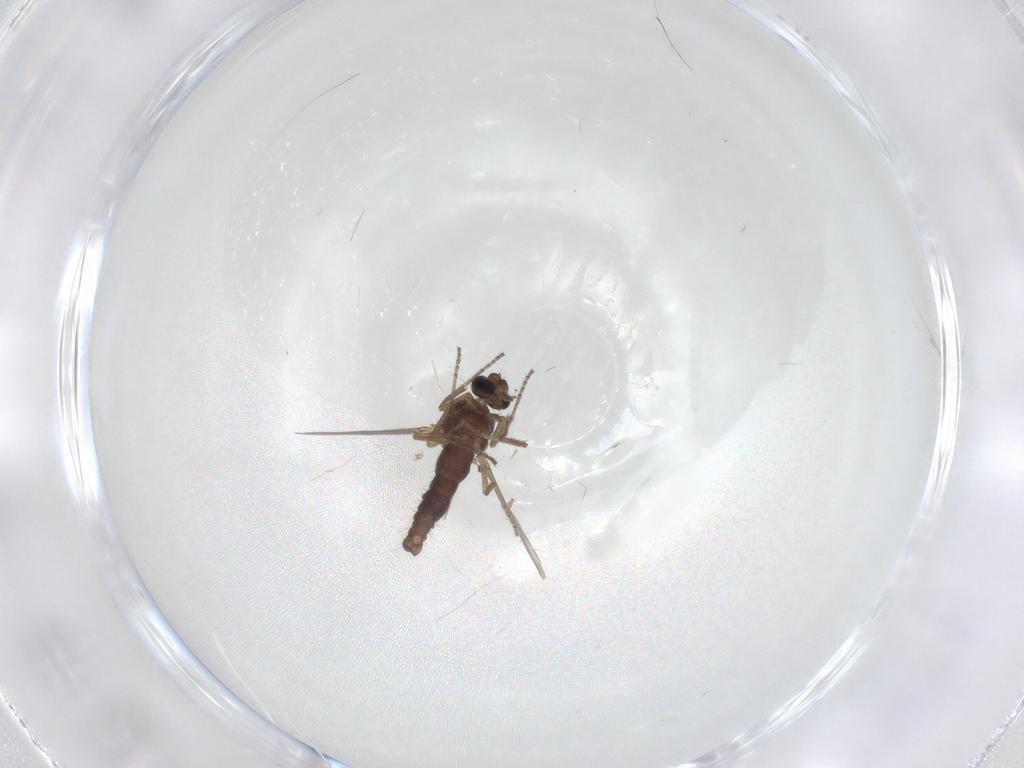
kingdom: Animalia
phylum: Arthropoda
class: Insecta
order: Diptera
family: Ceratopogonidae
